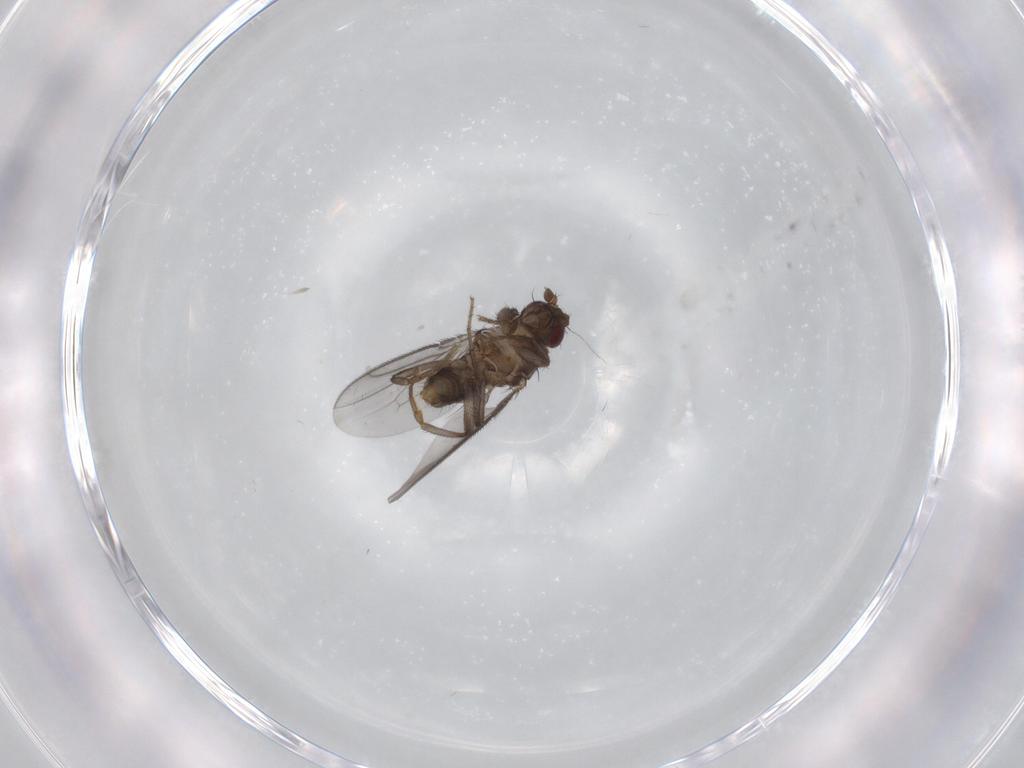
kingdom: Animalia
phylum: Arthropoda
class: Insecta
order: Diptera
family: Sphaeroceridae
